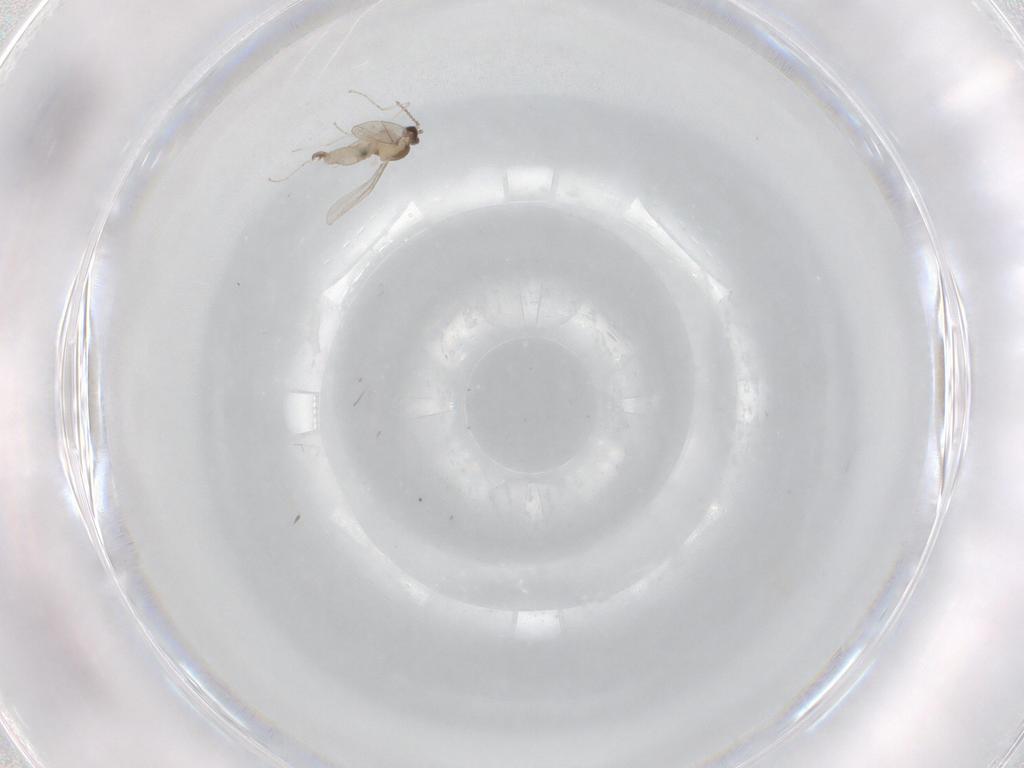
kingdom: Animalia
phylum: Arthropoda
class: Insecta
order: Diptera
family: Cecidomyiidae
